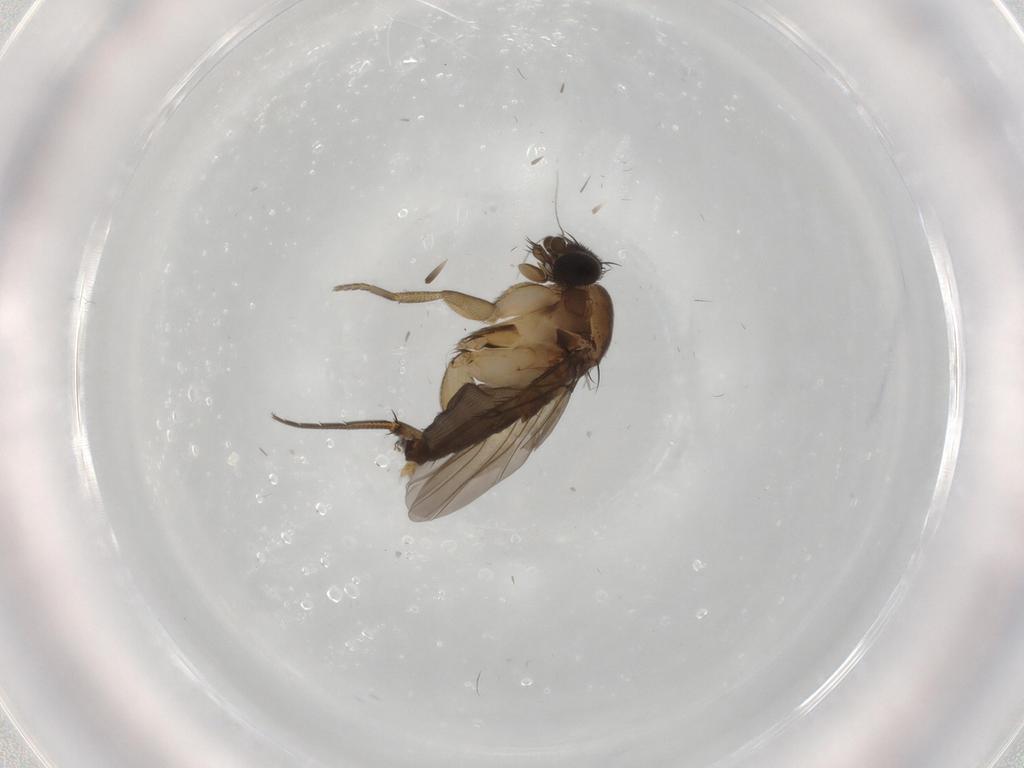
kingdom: Animalia
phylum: Arthropoda
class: Insecta
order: Diptera
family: Phoridae
